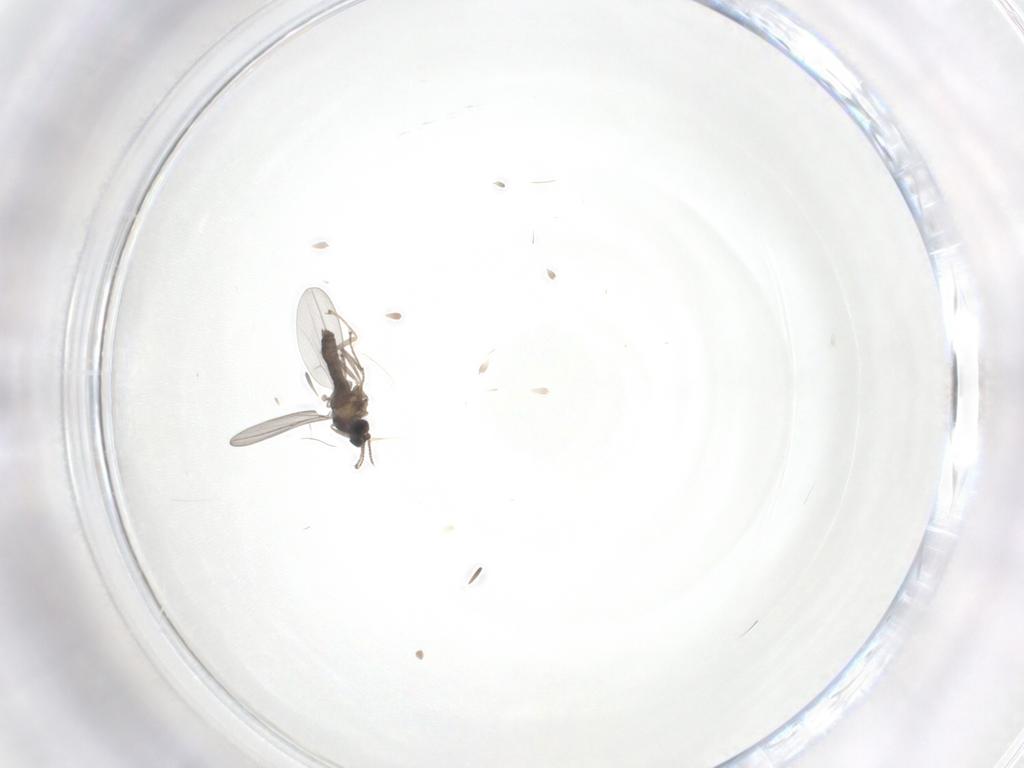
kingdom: Animalia
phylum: Arthropoda
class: Insecta
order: Diptera
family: Cecidomyiidae
